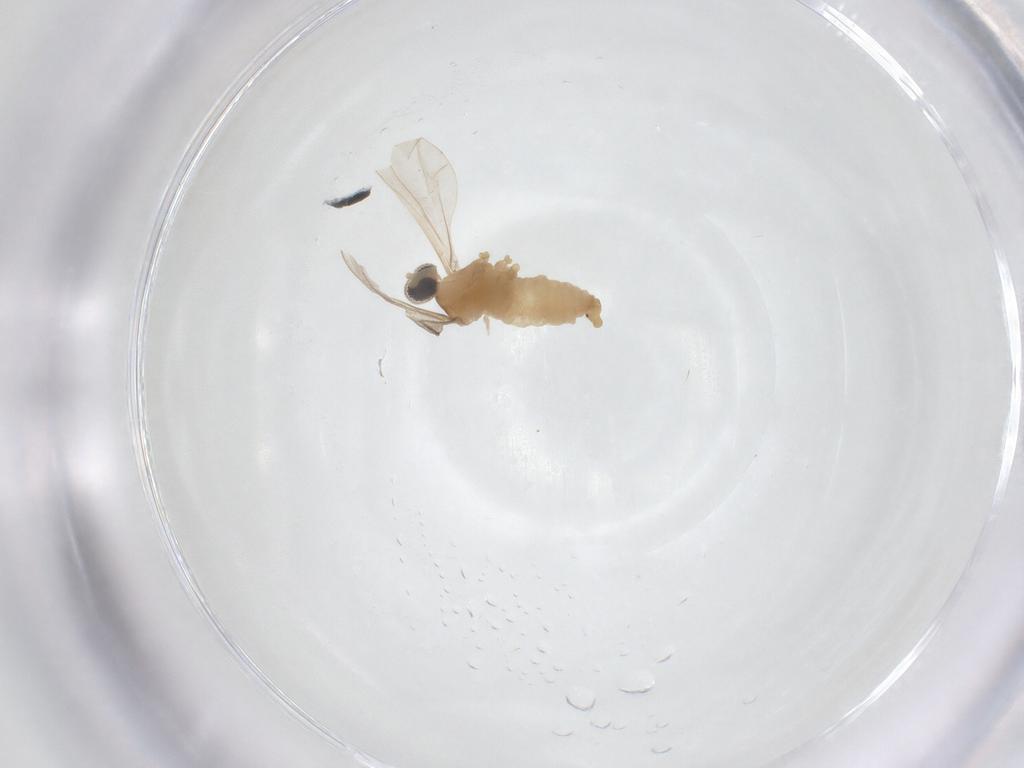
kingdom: Animalia
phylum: Arthropoda
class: Insecta
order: Diptera
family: Cecidomyiidae
